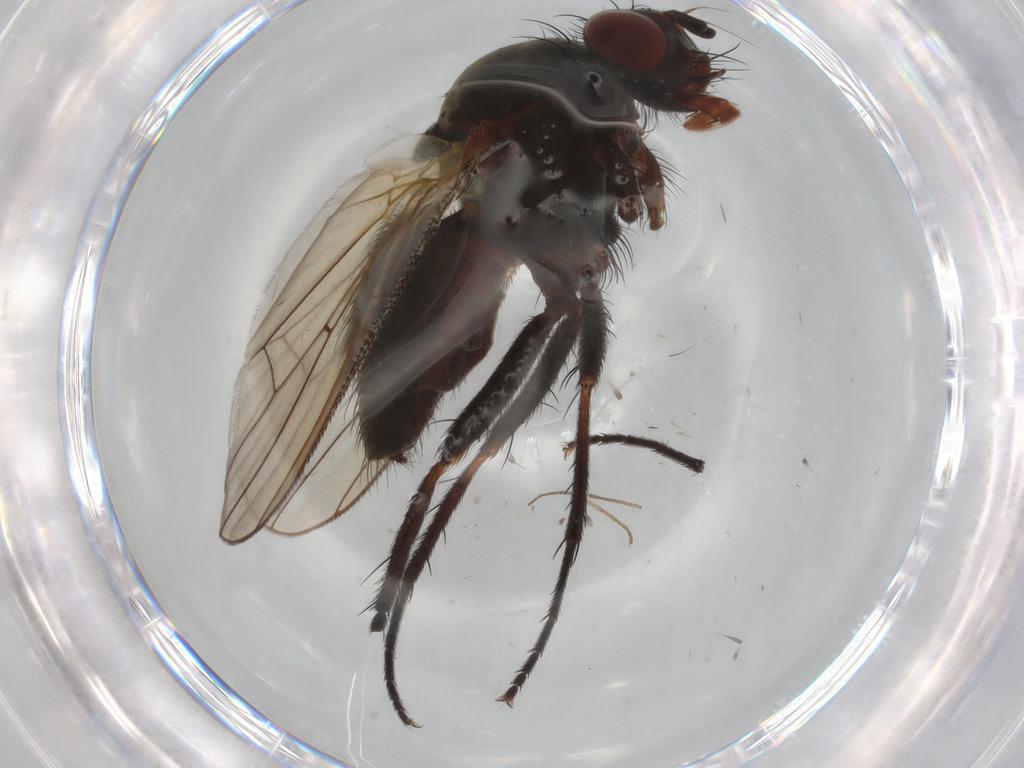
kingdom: Animalia
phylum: Arthropoda
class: Insecta
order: Diptera
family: Anthomyiidae
